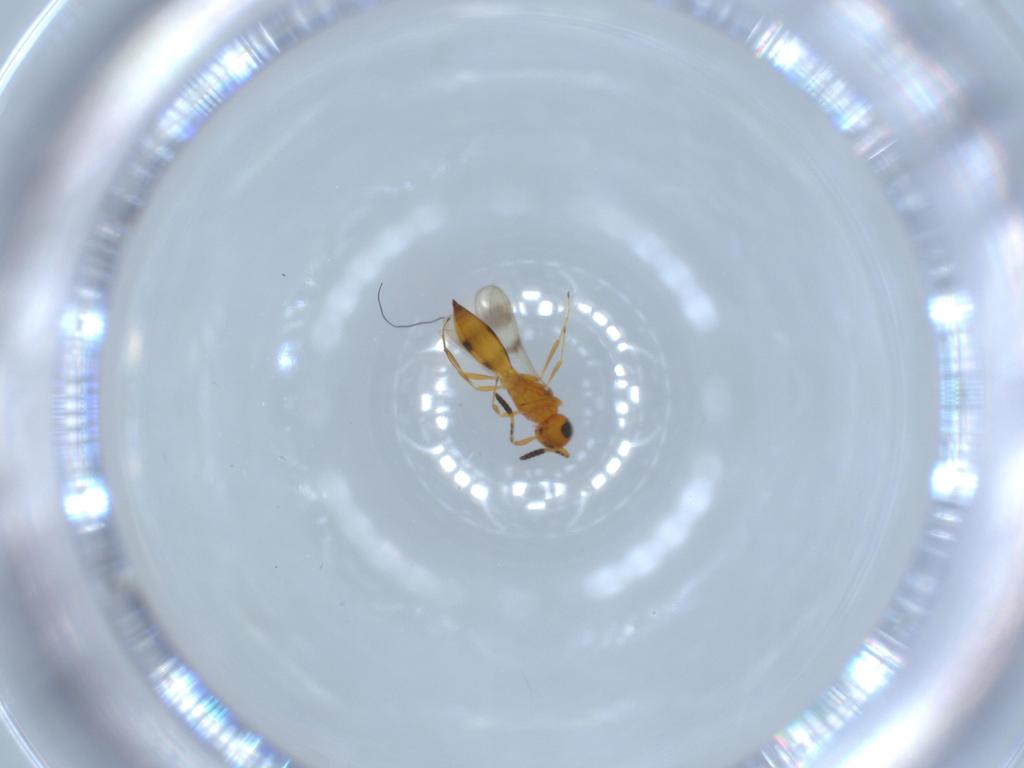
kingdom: Animalia
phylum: Arthropoda
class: Insecta
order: Hymenoptera
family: Scelionidae
